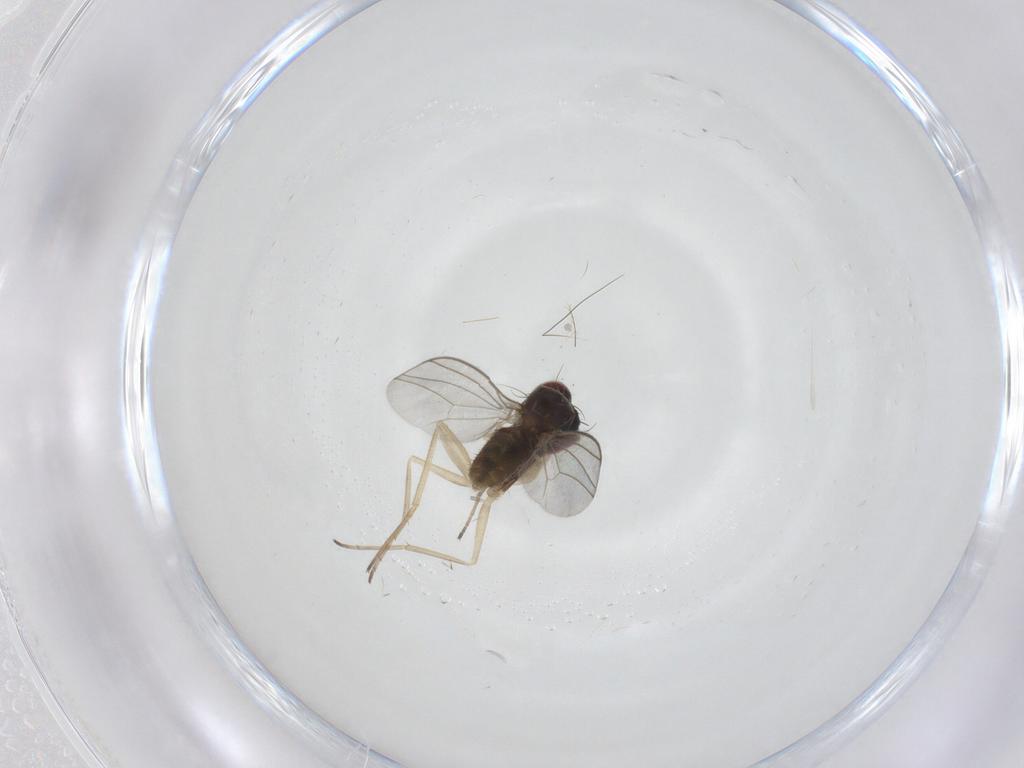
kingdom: Animalia
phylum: Arthropoda
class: Insecta
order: Diptera
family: Dolichopodidae
